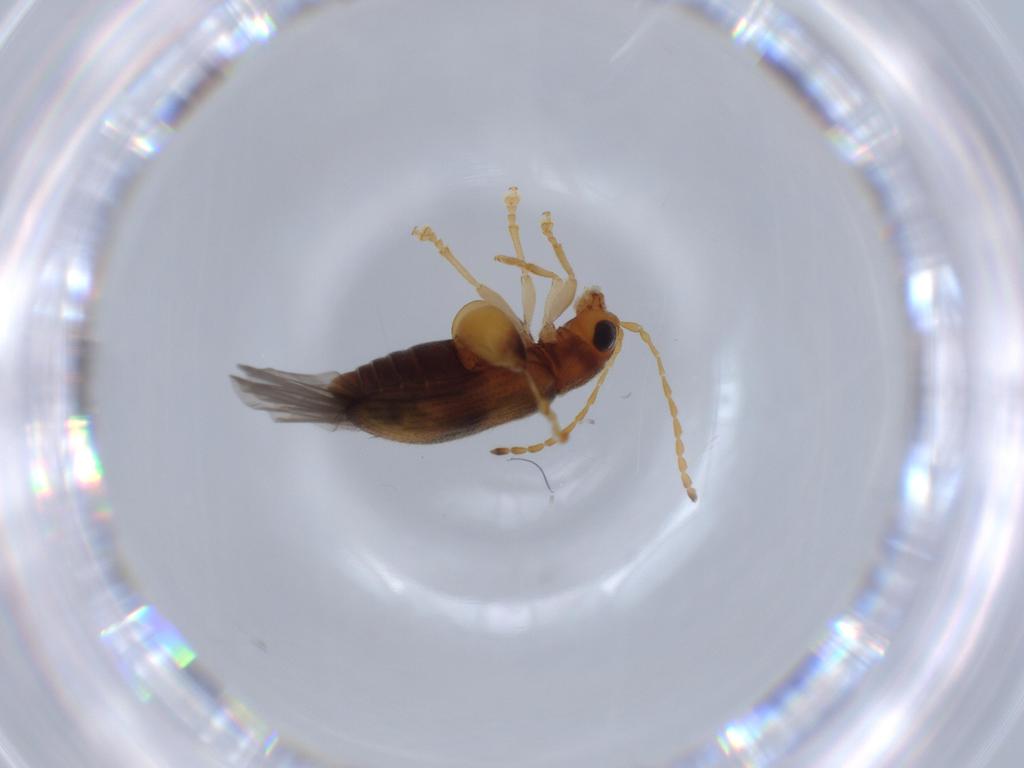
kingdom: Animalia
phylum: Arthropoda
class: Insecta
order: Coleoptera
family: Chrysomelidae
